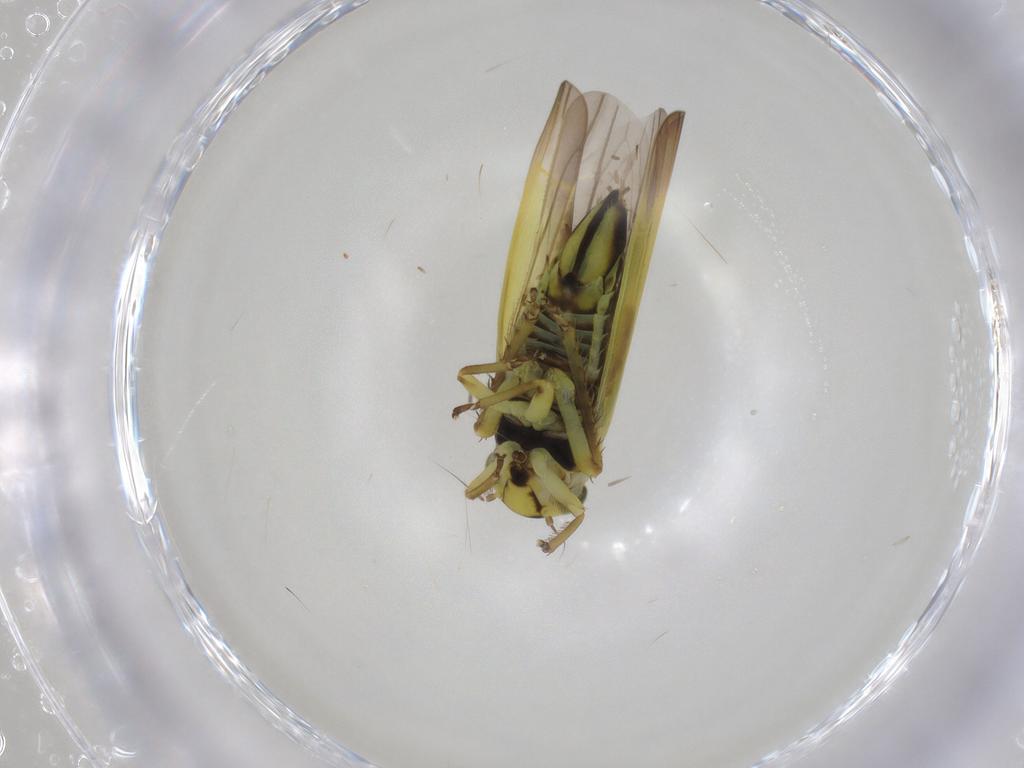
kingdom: Animalia
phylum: Arthropoda
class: Insecta
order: Hemiptera
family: Cicadellidae
